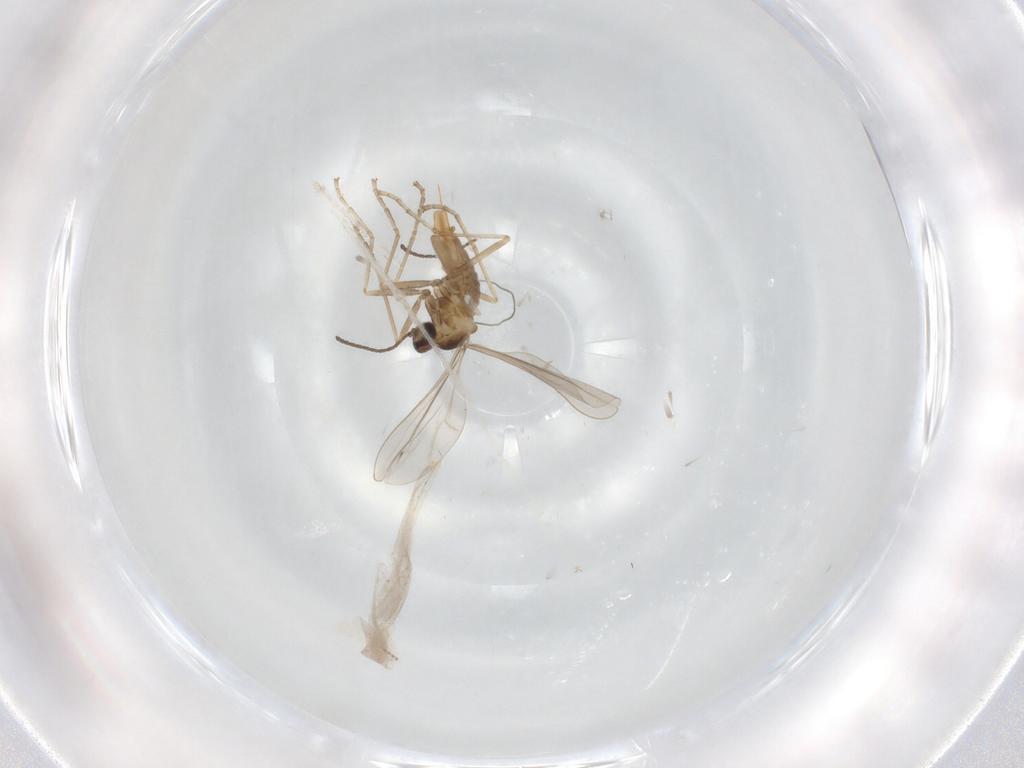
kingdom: Animalia
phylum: Arthropoda
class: Insecta
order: Diptera
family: Cecidomyiidae
